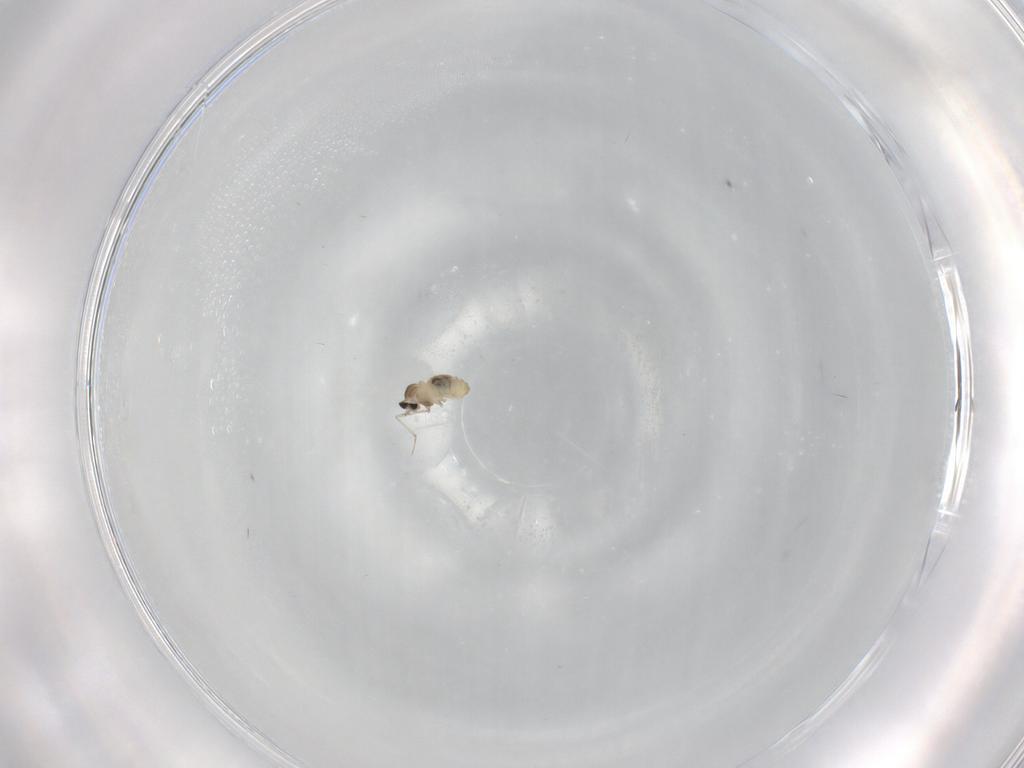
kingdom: Animalia
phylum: Arthropoda
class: Insecta
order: Diptera
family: Cecidomyiidae
